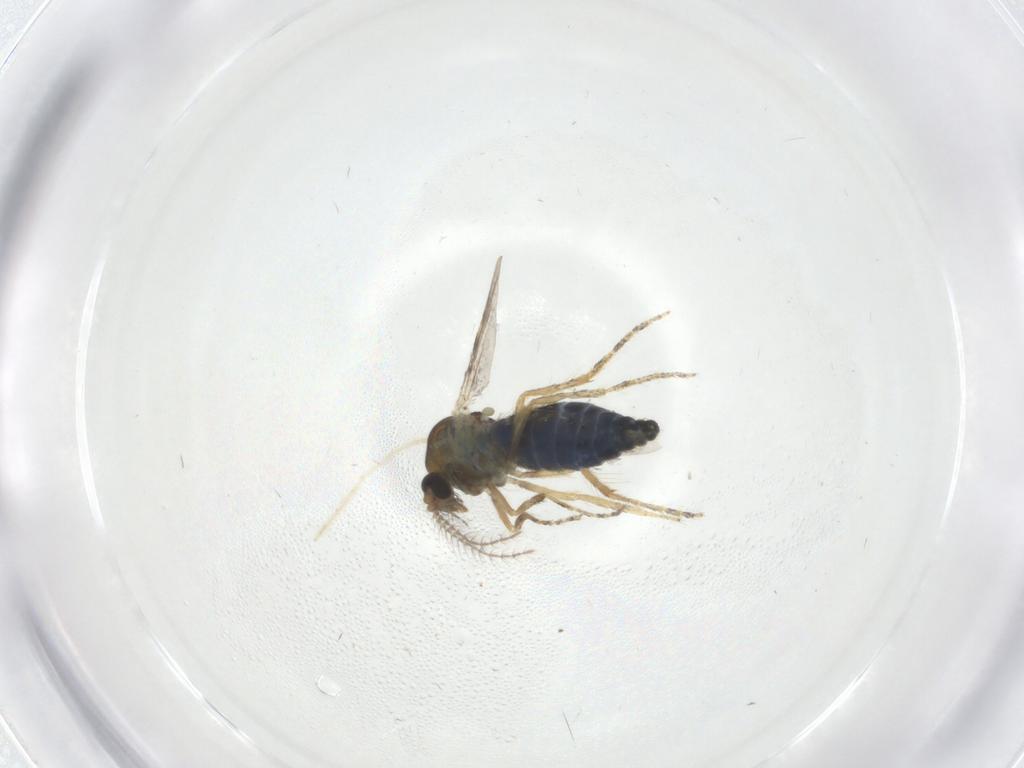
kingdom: Animalia
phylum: Arthropoda
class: Insecta
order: Diptera
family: Ceratopogonidae
